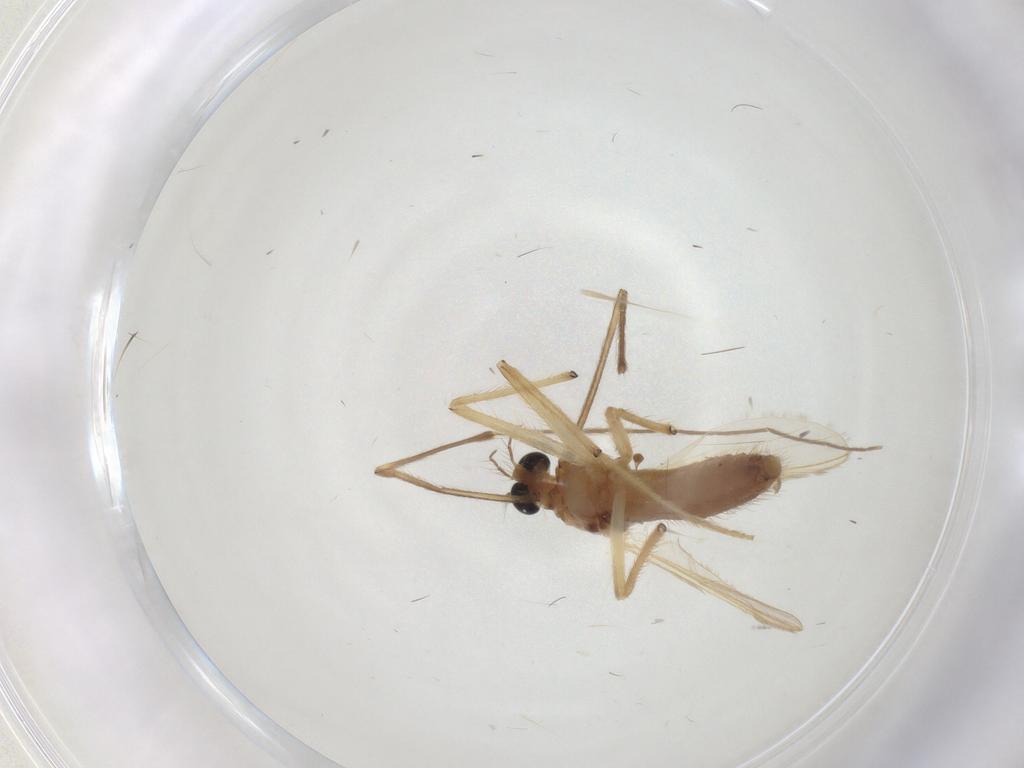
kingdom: Animalia
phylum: Arthropoda
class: Insecta
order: Diptera
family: Chironomidae
